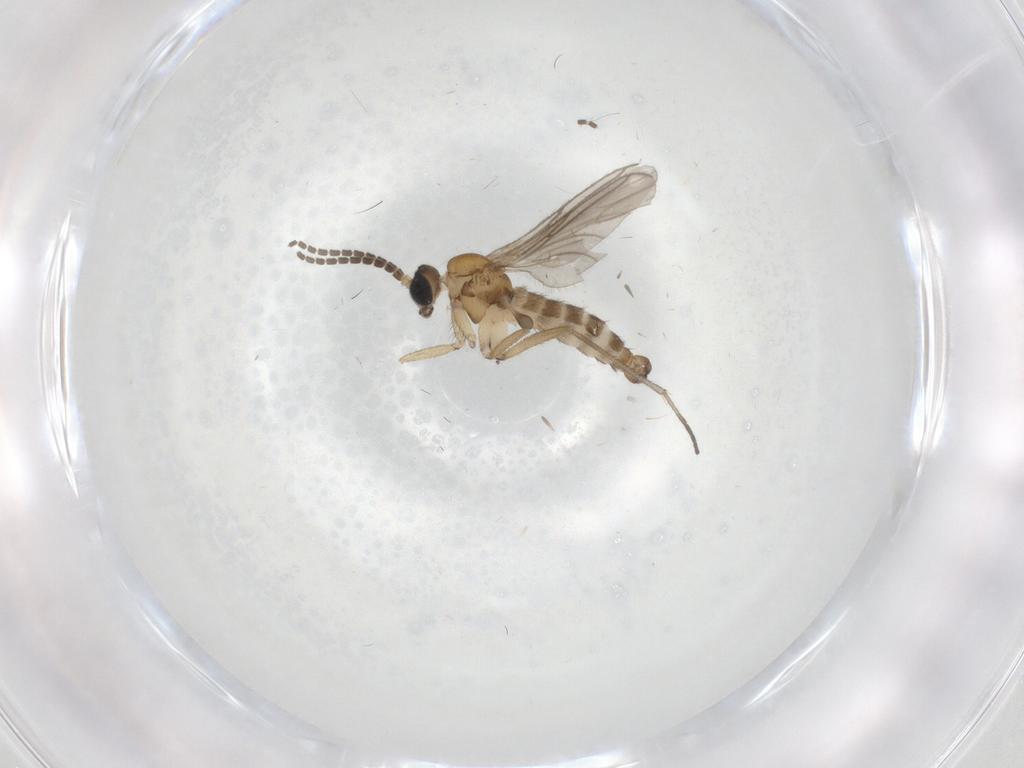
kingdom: Animalia
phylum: Arthropoda
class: Insecta
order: Diptera
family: Sciaridae
